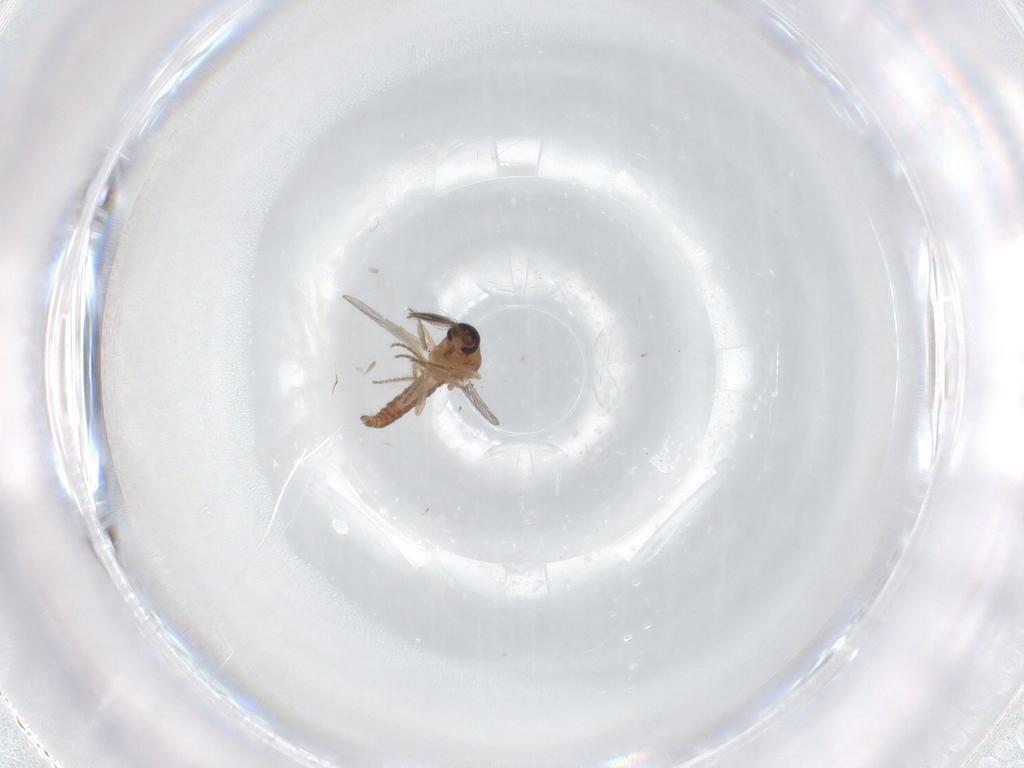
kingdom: Animalia
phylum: Arthropoda
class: Insecta
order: Diptera
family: Ceratopogonidae
